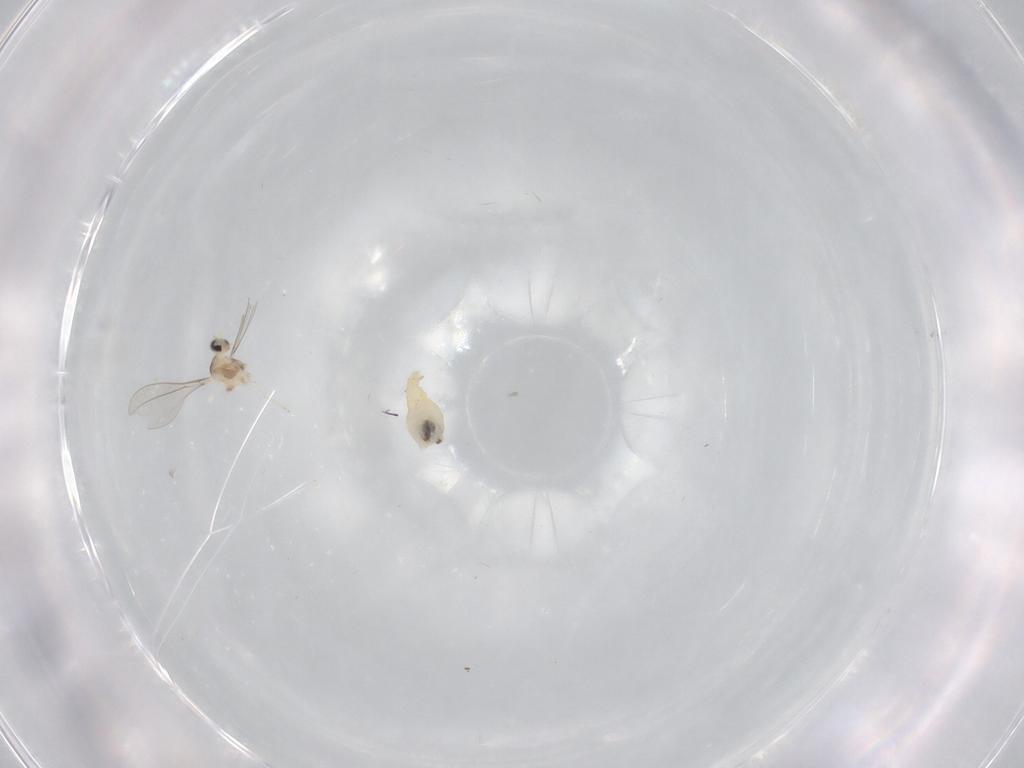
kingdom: Animalia
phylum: Arthropoda
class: Insecta
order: Diptera
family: Cecidomyiidae
